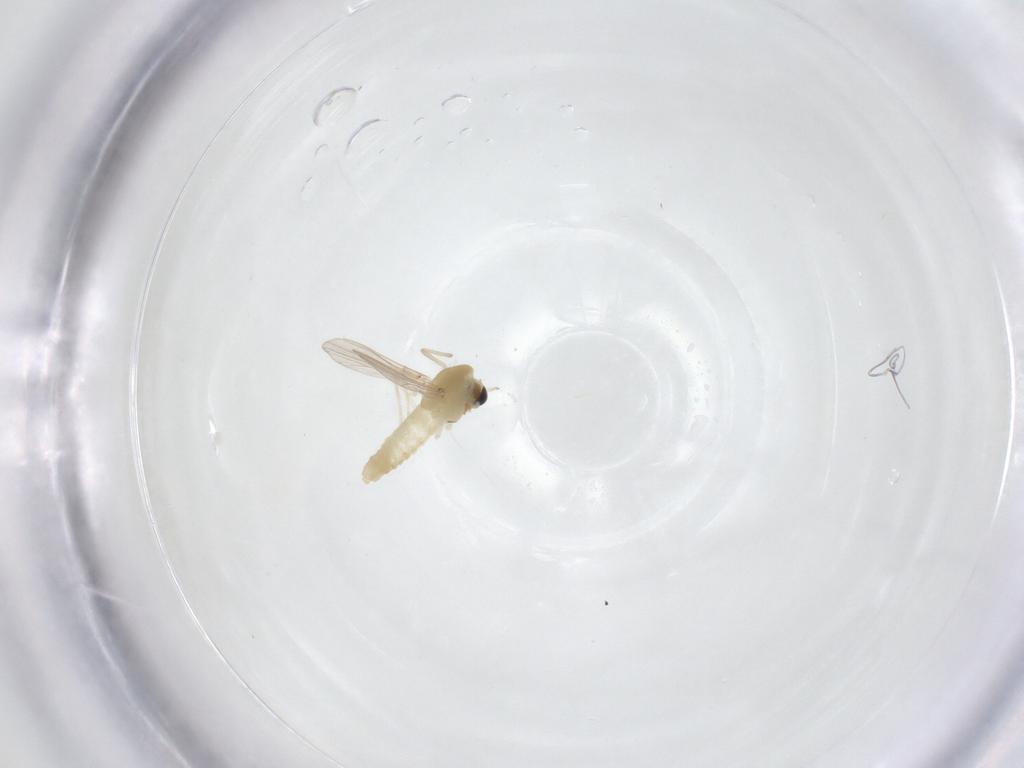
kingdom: Animalia
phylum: Arthropoda
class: Insecta
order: Diptera
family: Chironomidae
